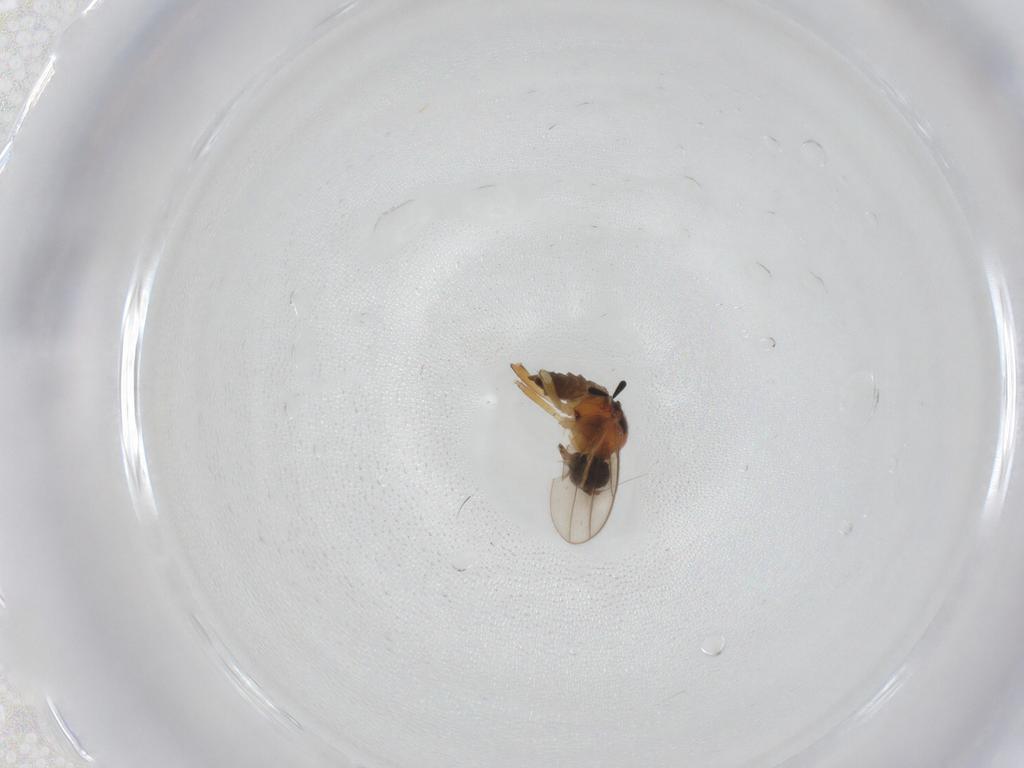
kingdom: Animalia
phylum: Arthropoda
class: Insecta
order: Diptera
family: Hybotidae
